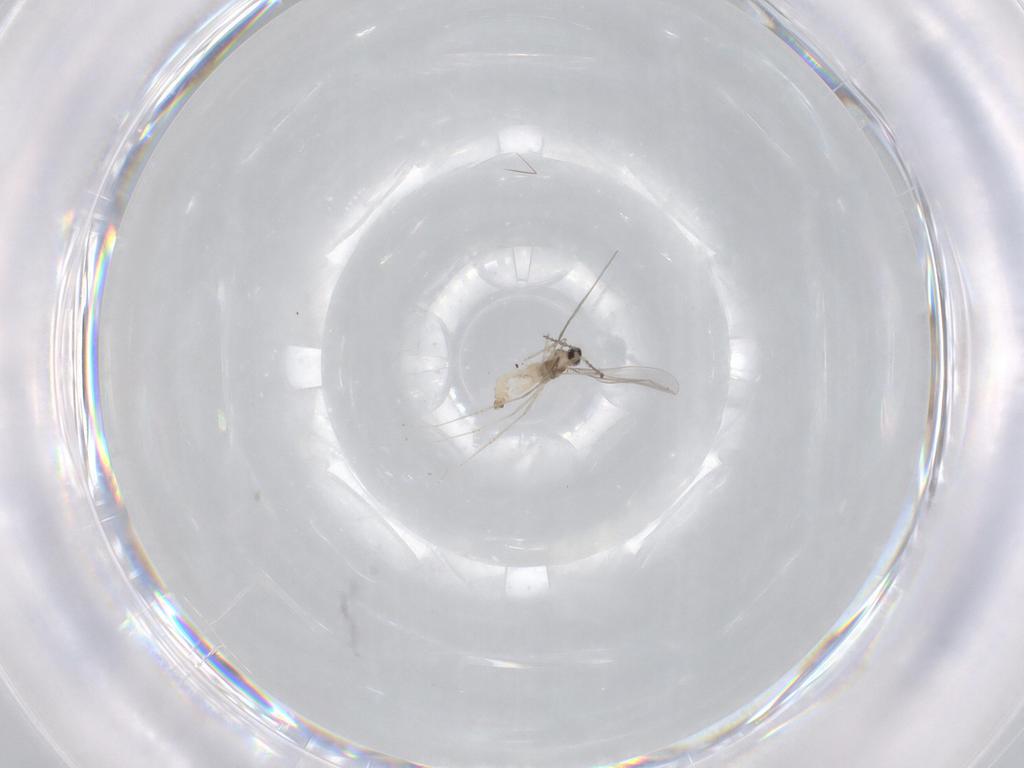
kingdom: Animalia
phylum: Arthropoda
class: Insecta
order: Diptera
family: Cecidomyiidae
